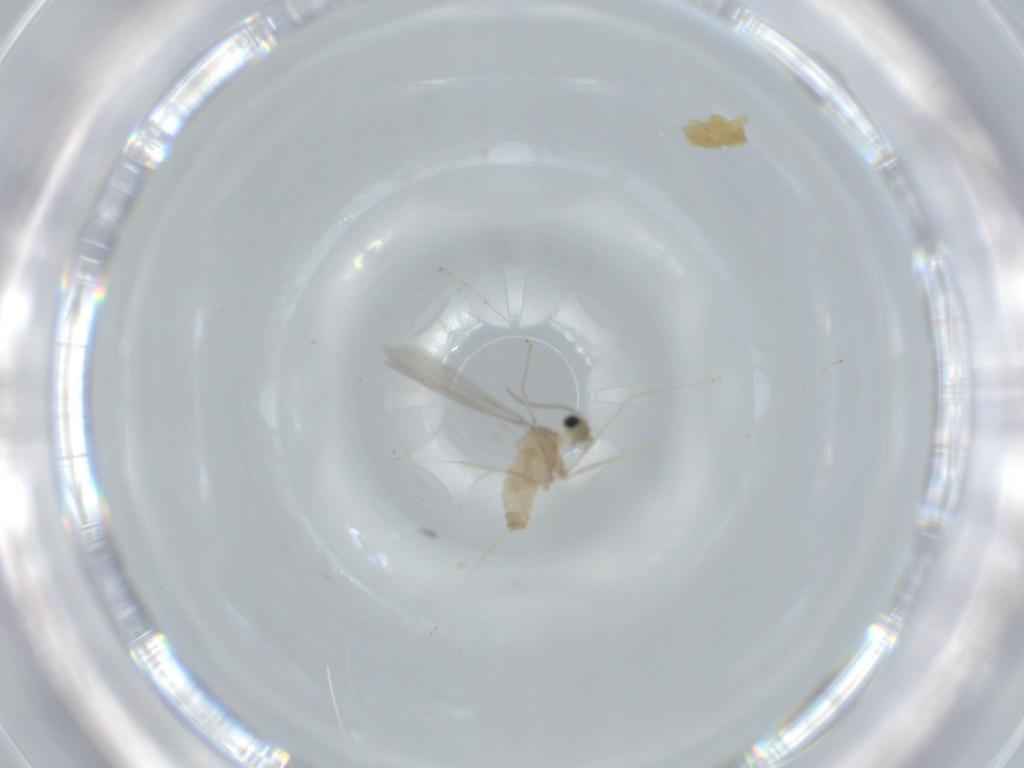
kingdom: Animalia
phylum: Arthropoda
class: Insecta
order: Diptera
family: Cecidomyiidae
